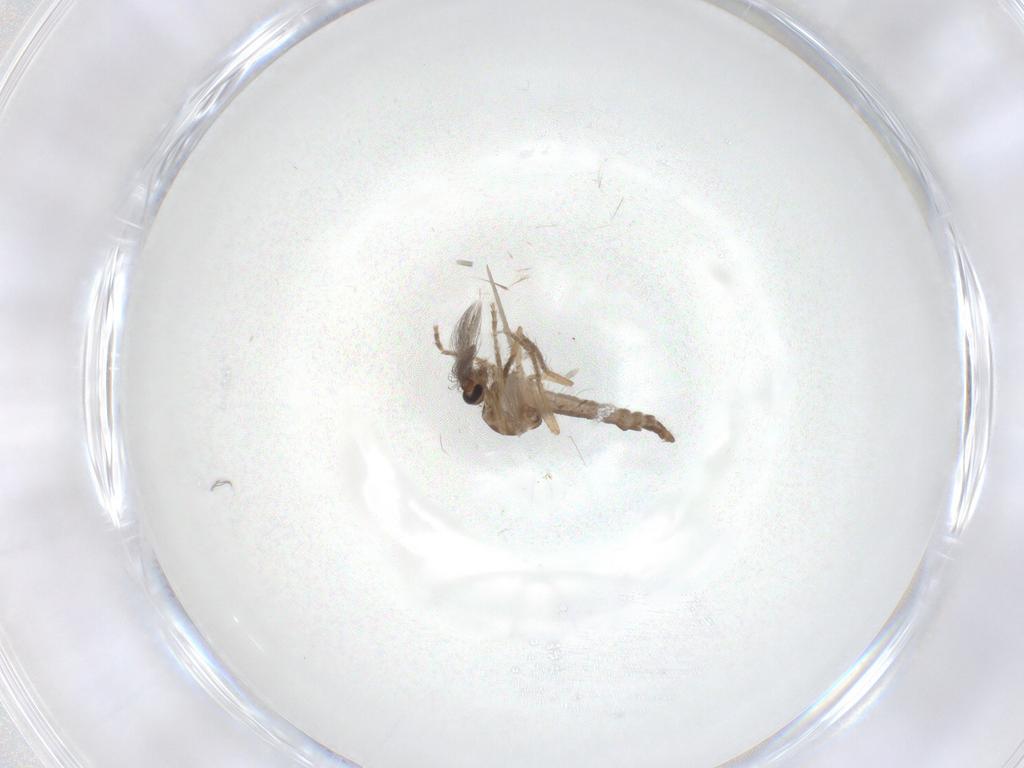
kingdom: Animalia
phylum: Arthropoda
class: Insecta
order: Diptera
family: Ceratopogonidae
